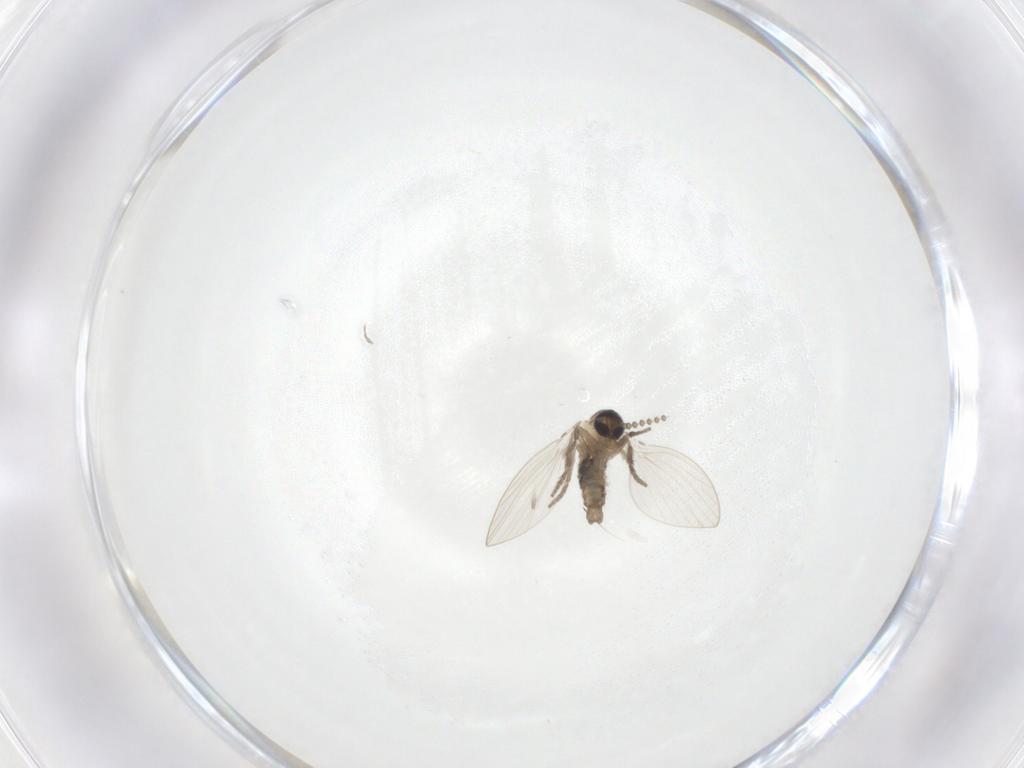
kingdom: Animalia
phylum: Arthropoda
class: Insecta
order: Diptera
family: Psychodidae
